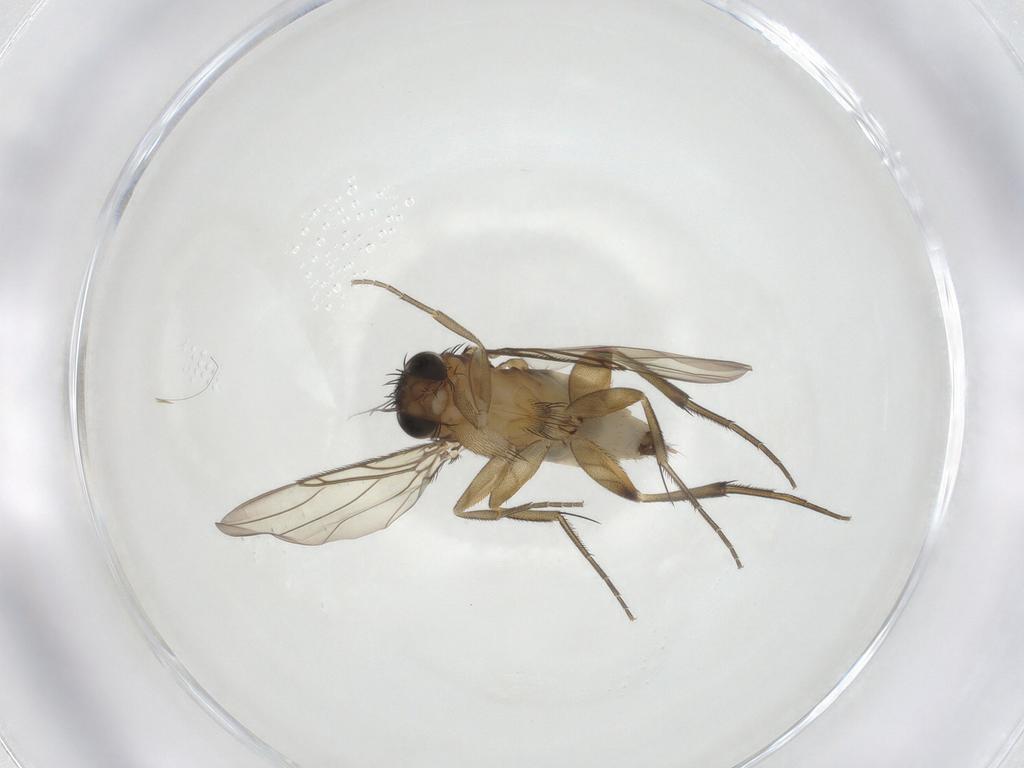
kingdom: Animalia
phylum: Arthropoda
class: Insecta
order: Diptera
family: Phoridae
